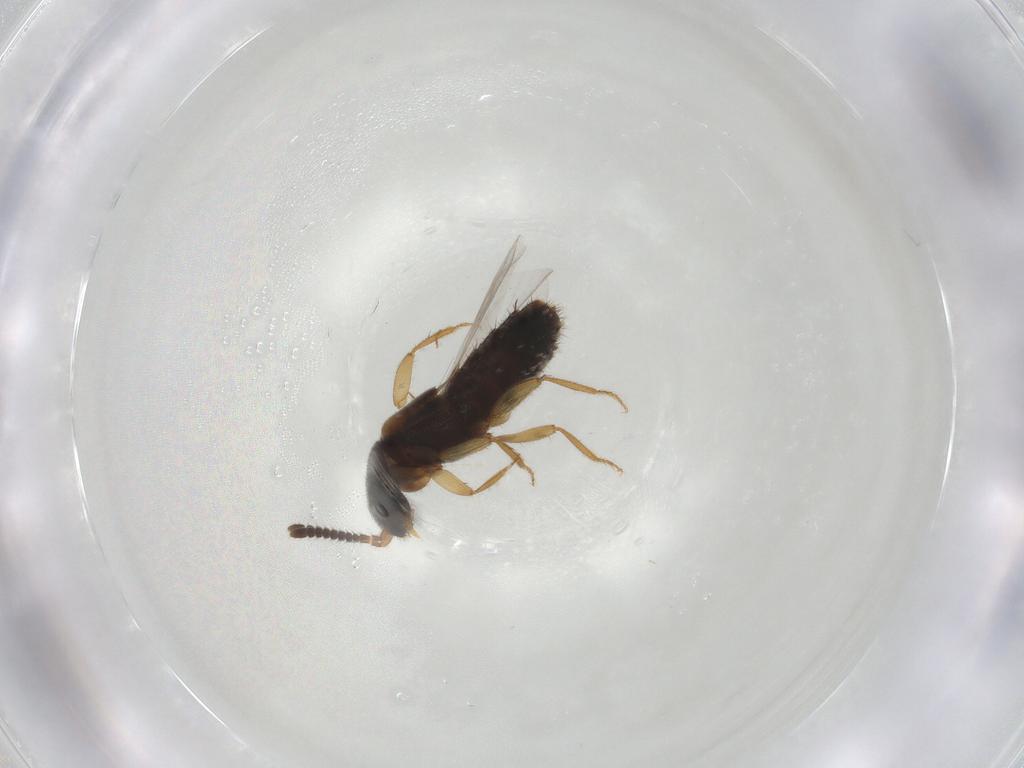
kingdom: Animalia
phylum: Arthropoda
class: Insecta
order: Coleoptera
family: Staphylinidae
